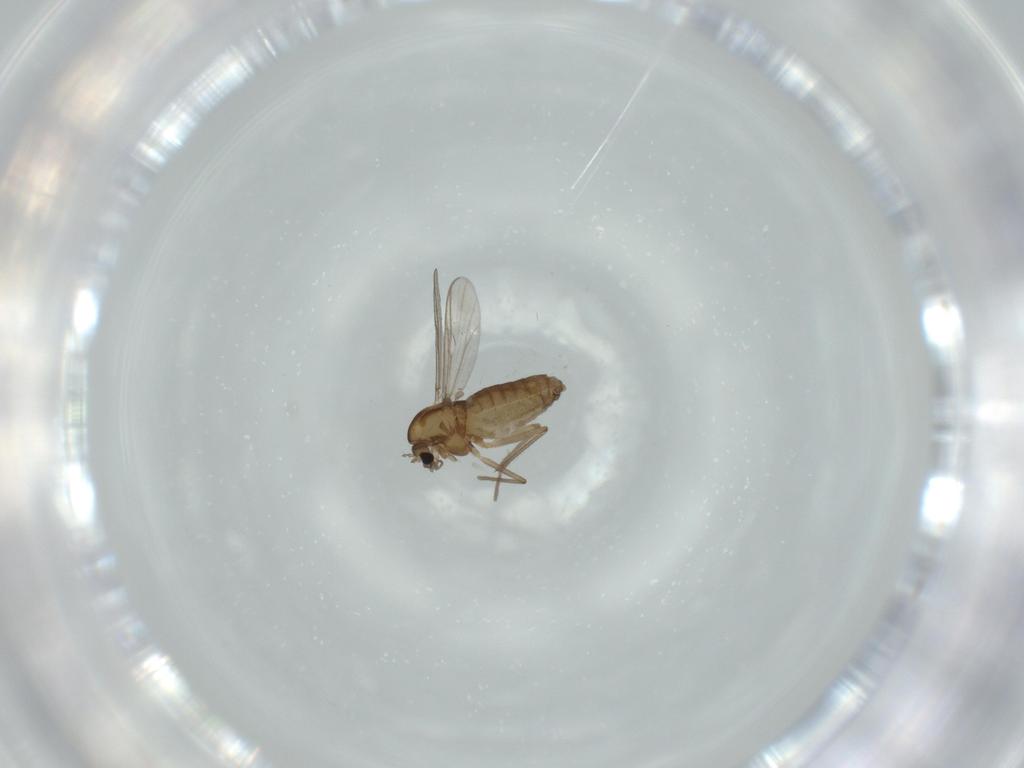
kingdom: Animalia
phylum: Arthropoda
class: Insecta
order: Diptera
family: Chironomidae
